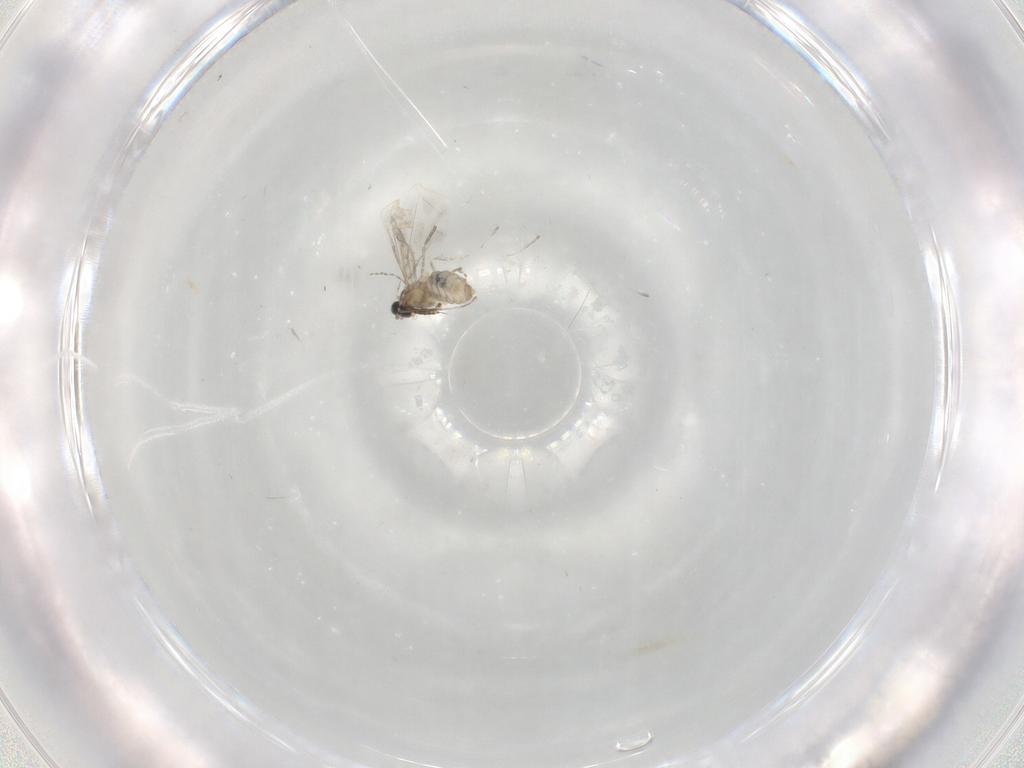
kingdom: Animalia
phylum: Arthropoda
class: Insecta
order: Diptera
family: Cecidomyiidae
